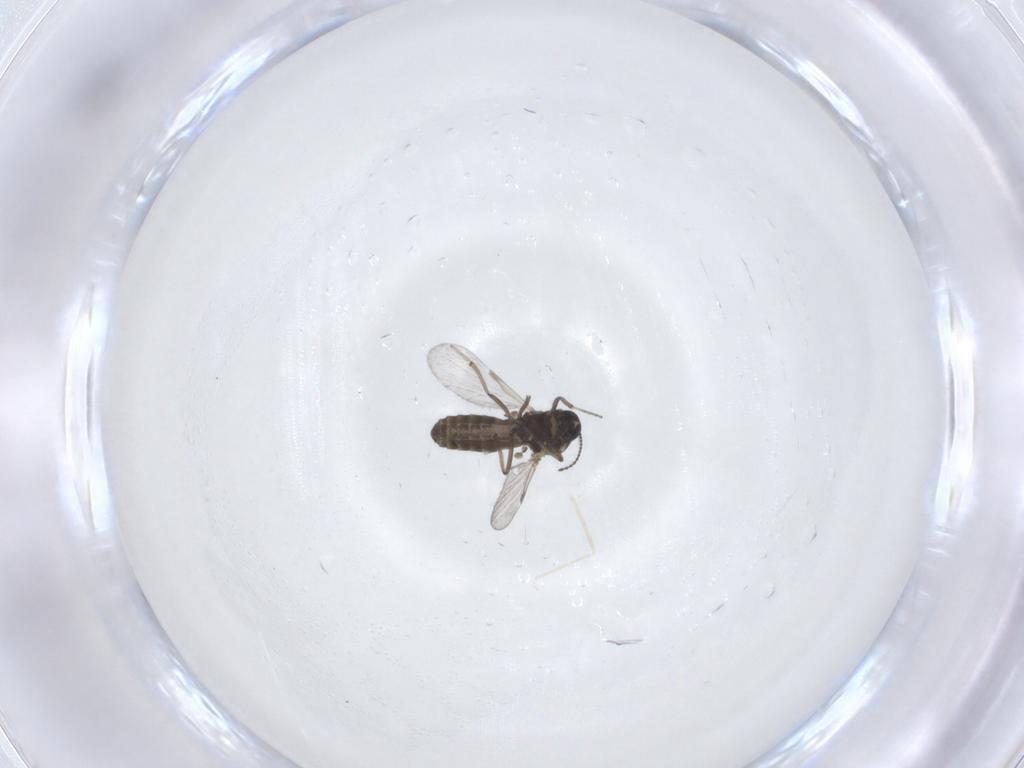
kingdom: Animalia
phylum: Arthropoda
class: Insecta
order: Diptera
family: Ceratopogonidae
